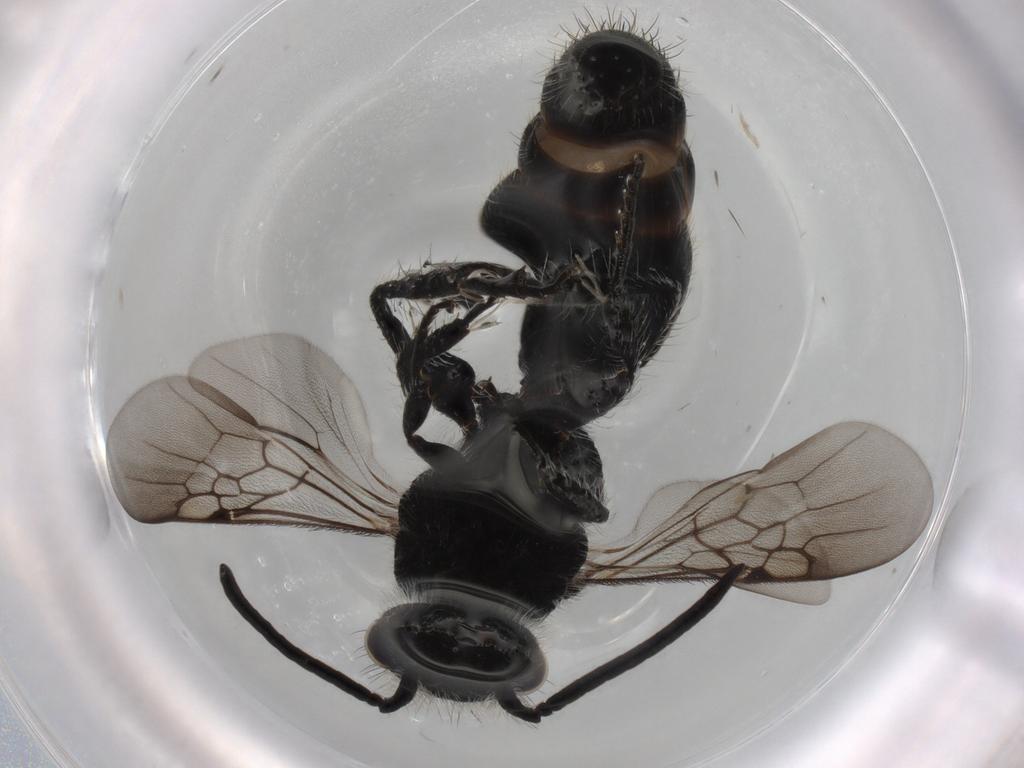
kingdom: Animalia
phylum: Arthropoda
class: Insecta
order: Hymenoptera
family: Mutillidae
